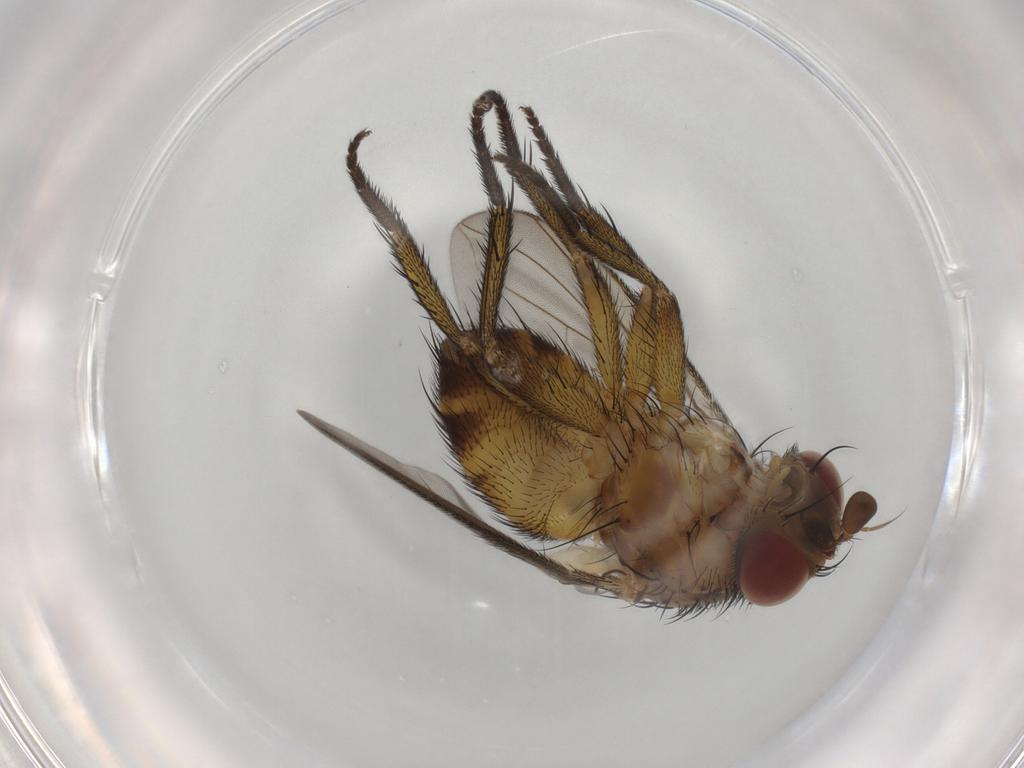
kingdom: Animalia
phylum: Arthropoda
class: Insecta
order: Diptera
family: Ceratopogonidae
